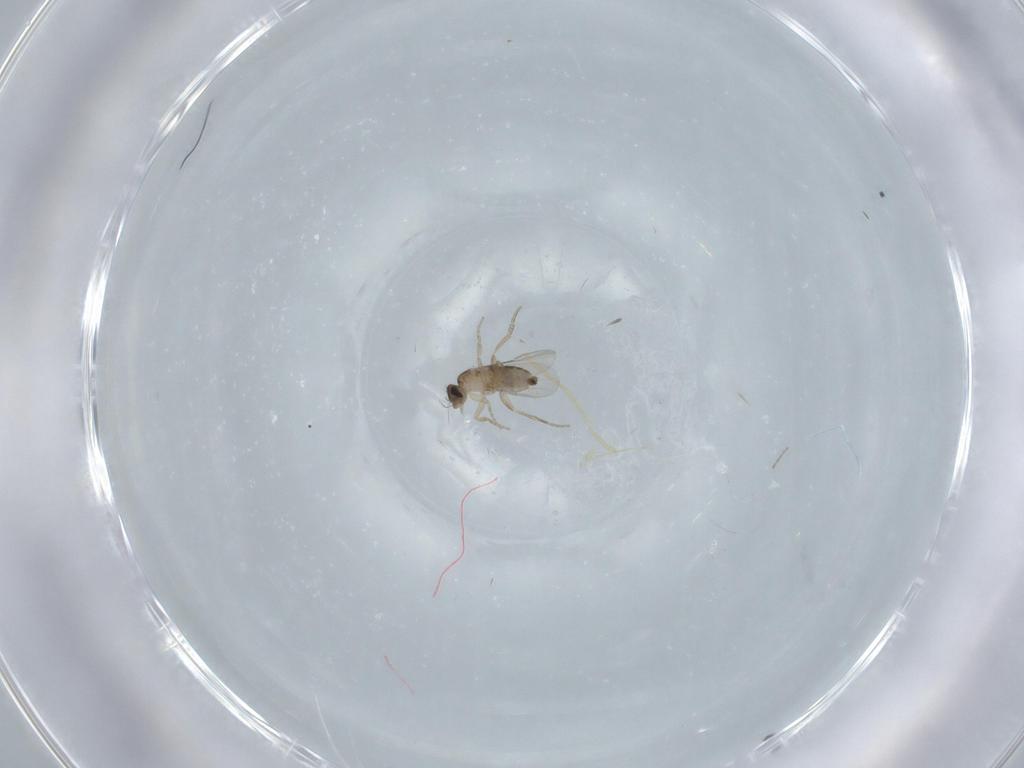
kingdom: Animalia
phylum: Arthropoda
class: Insecta
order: Diptera
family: Phoridae
